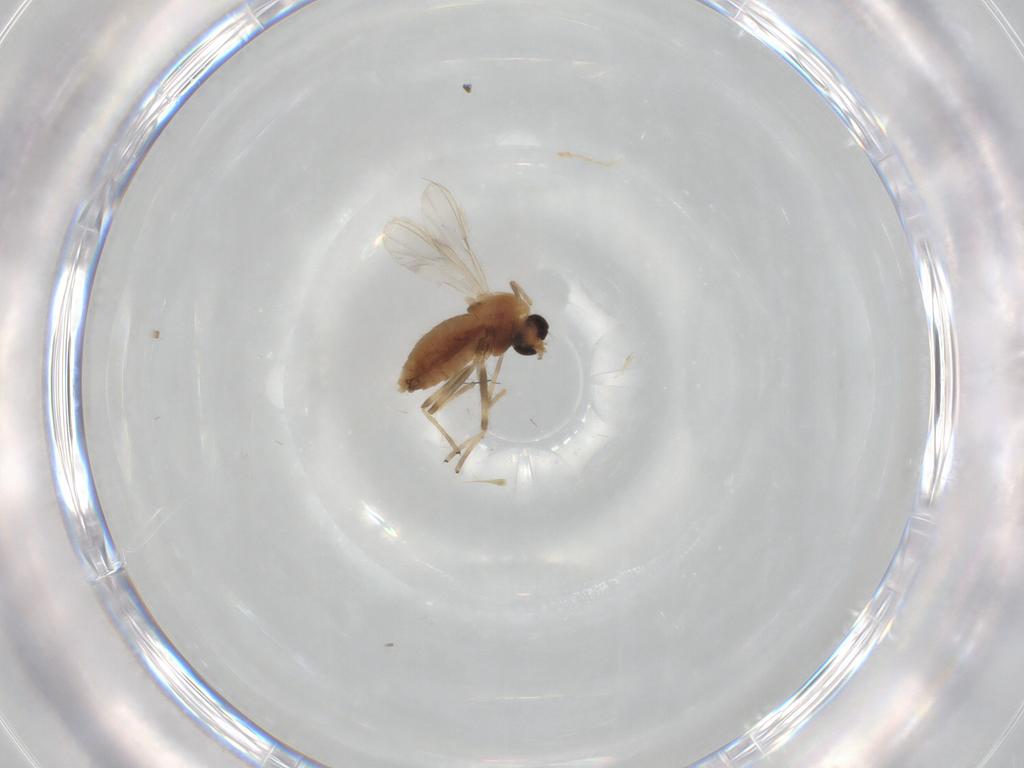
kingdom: Animalia
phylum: Arthropoda
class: Insecta
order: Diptera
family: Chironomidae
